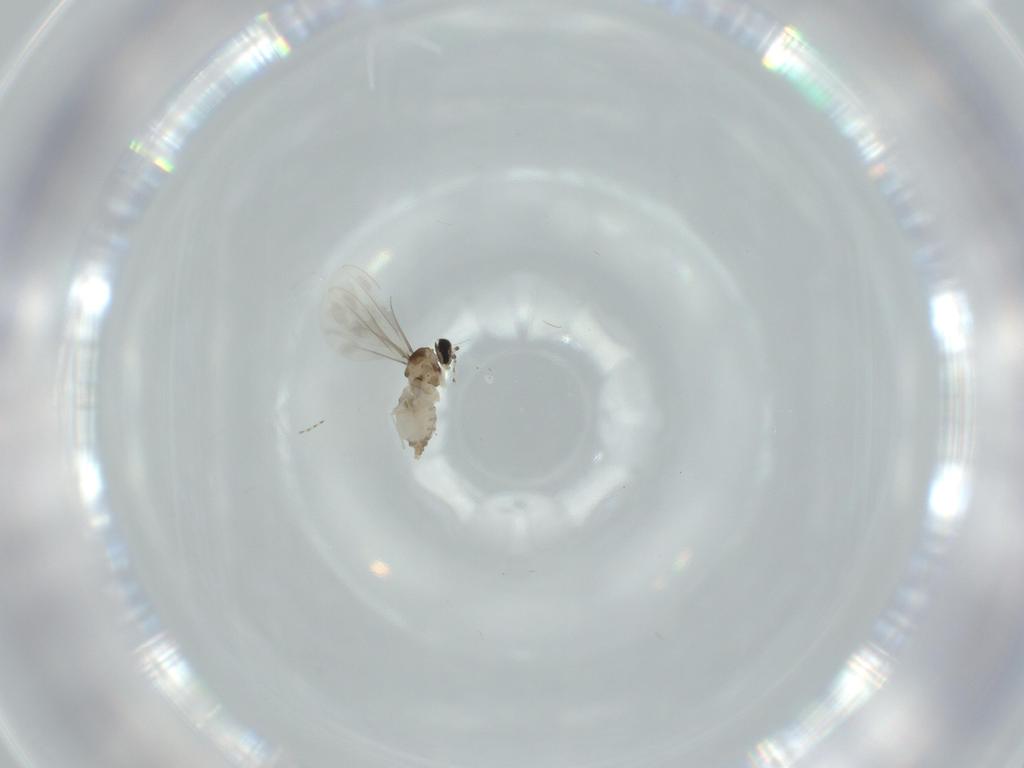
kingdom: Animalia
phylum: Arthropoda
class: Insecta
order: Diptera
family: Cecidomyiidae
